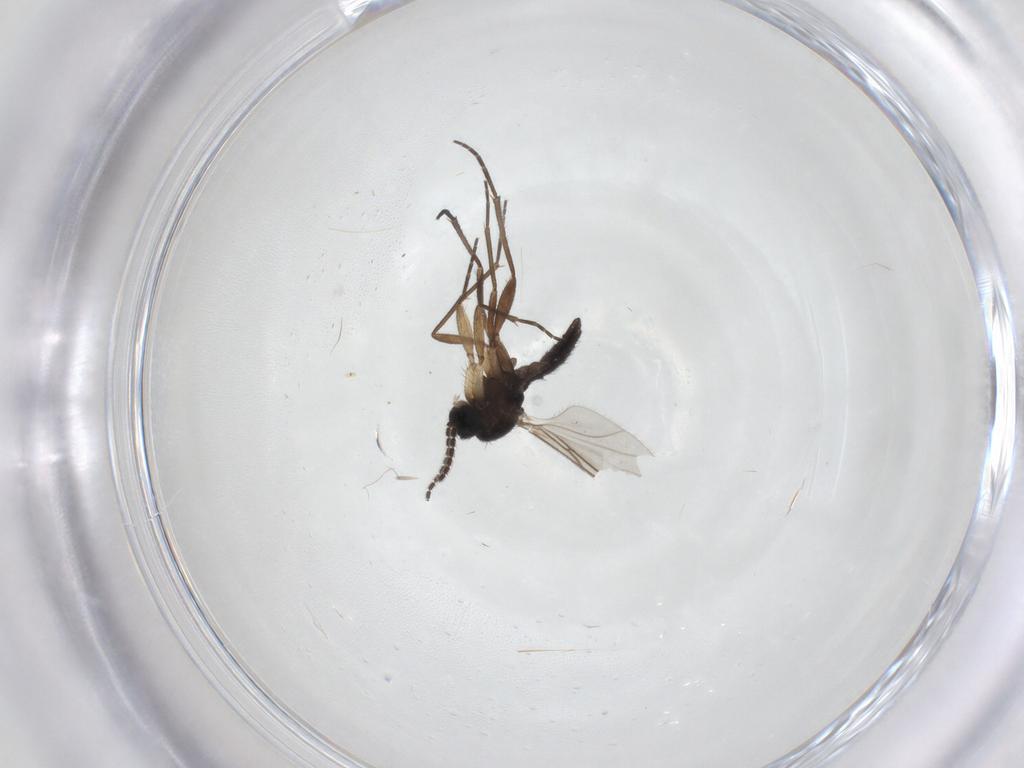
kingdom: Animalia
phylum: Arthropoda
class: Insecta
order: Diptera
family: Sciaridae
